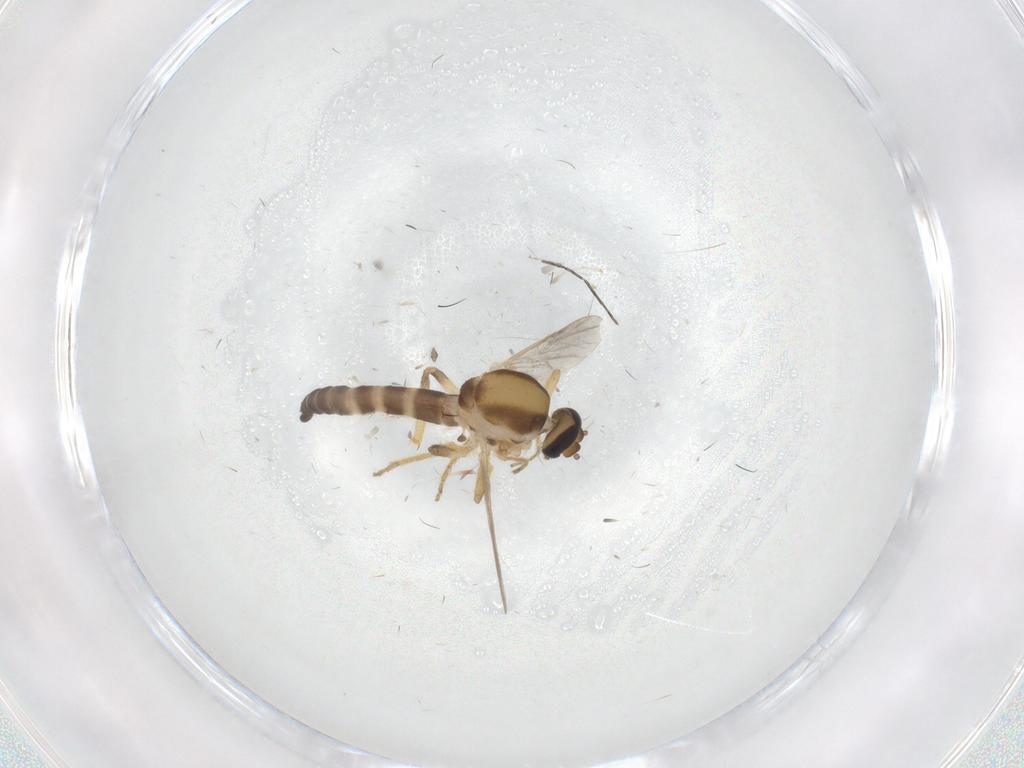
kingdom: Animalia
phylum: Arthropoda
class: Insecta
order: Diptera
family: Ceratopogonidae
